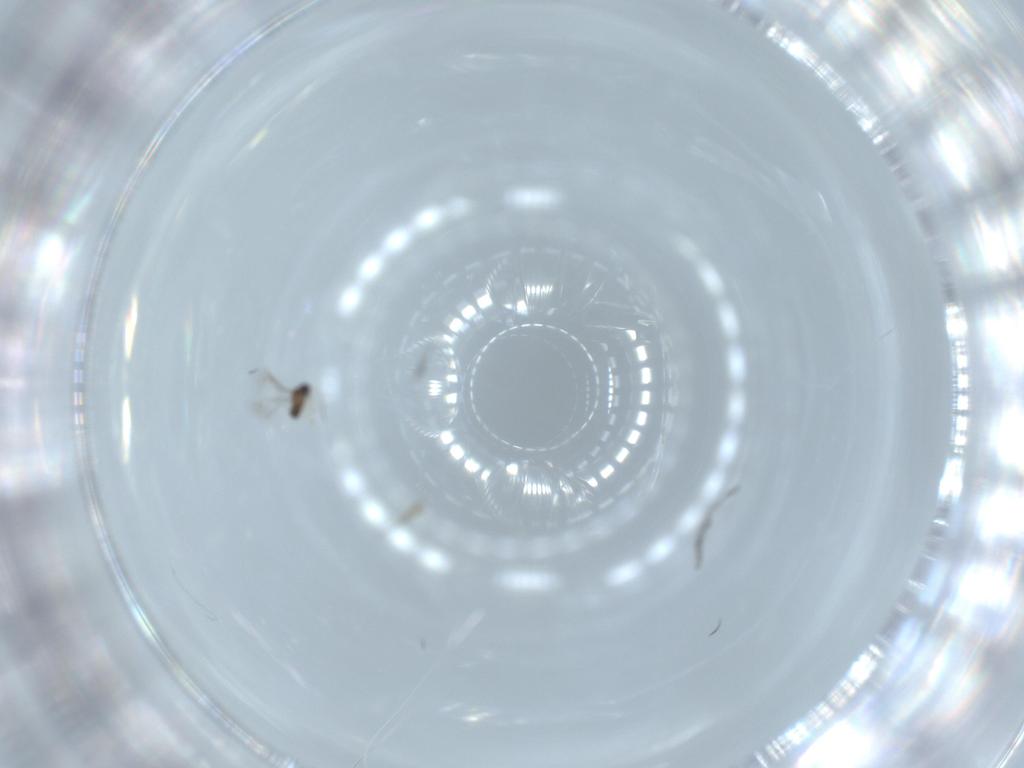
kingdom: Animalia
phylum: Arthropoda
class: Insecta
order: Hymenoptera
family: Mymaridae
